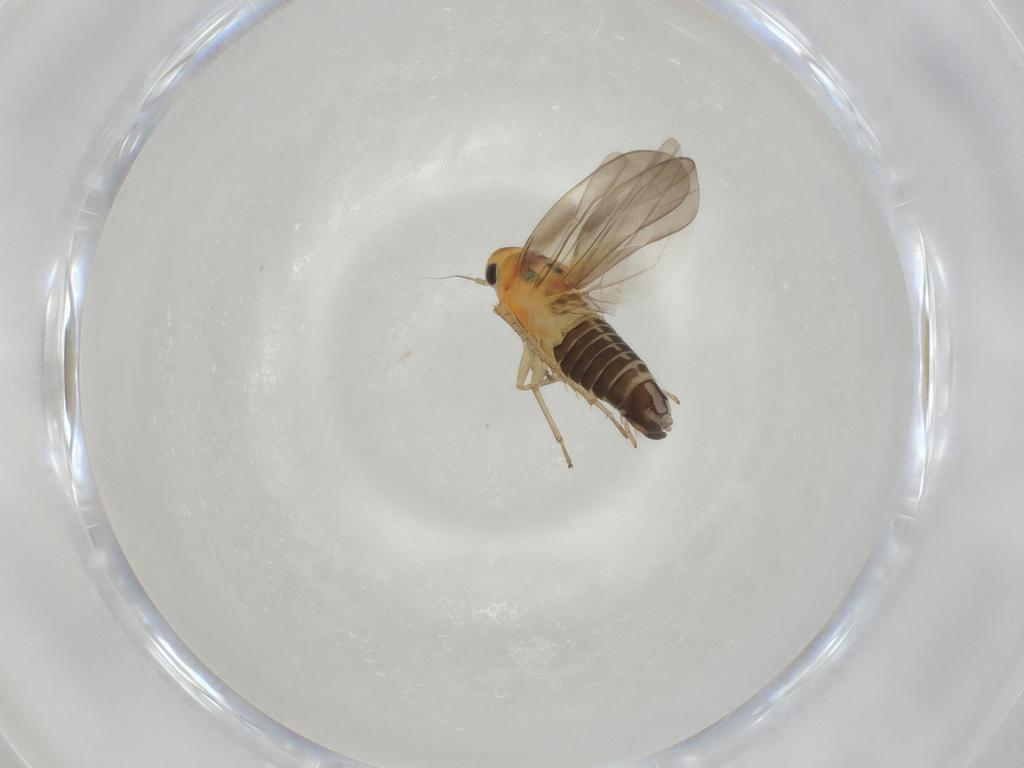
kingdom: Animalia
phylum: Arthropoda
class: Insecta
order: Hemiptera
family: Cicadellidae
